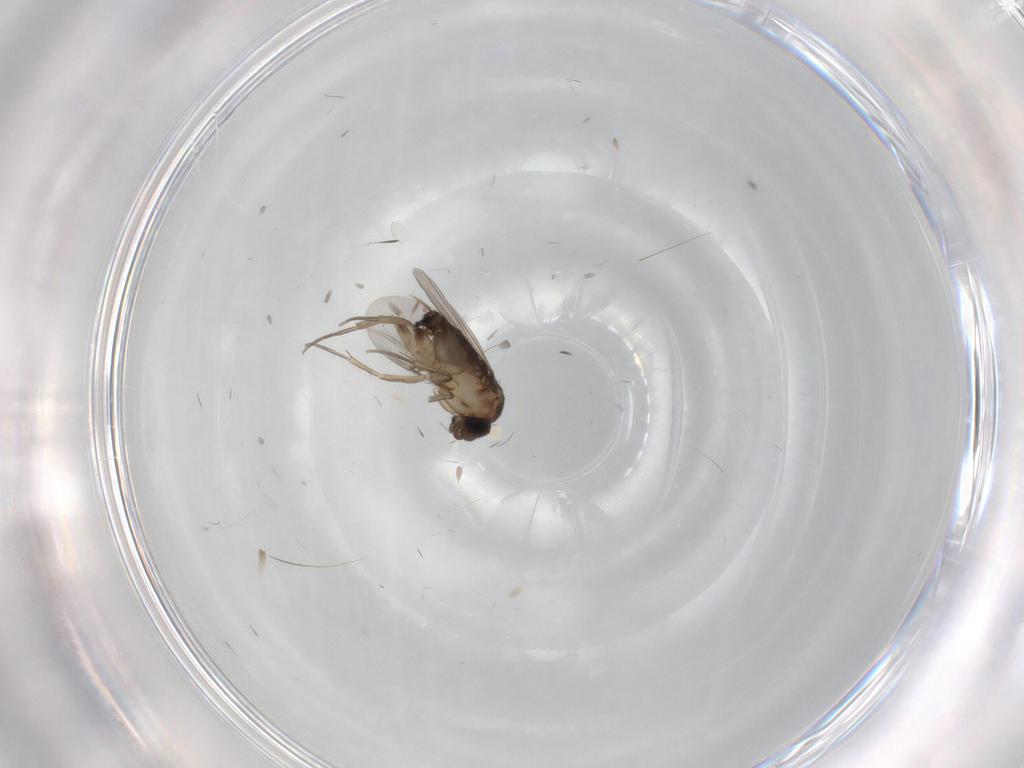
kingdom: Animalia
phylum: Arthropoda
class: Insecta
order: Diptera
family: Phoridae
